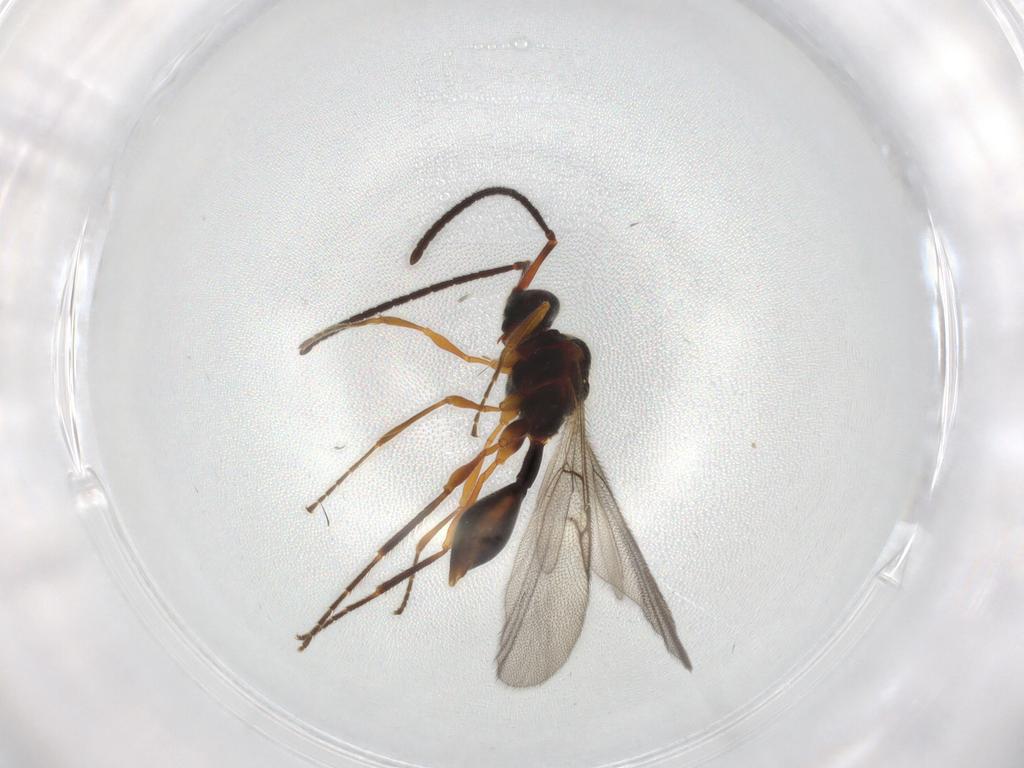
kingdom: Animalia
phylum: Arthropoda
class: Insecta
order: Hymenoptera
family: Diapriidae
